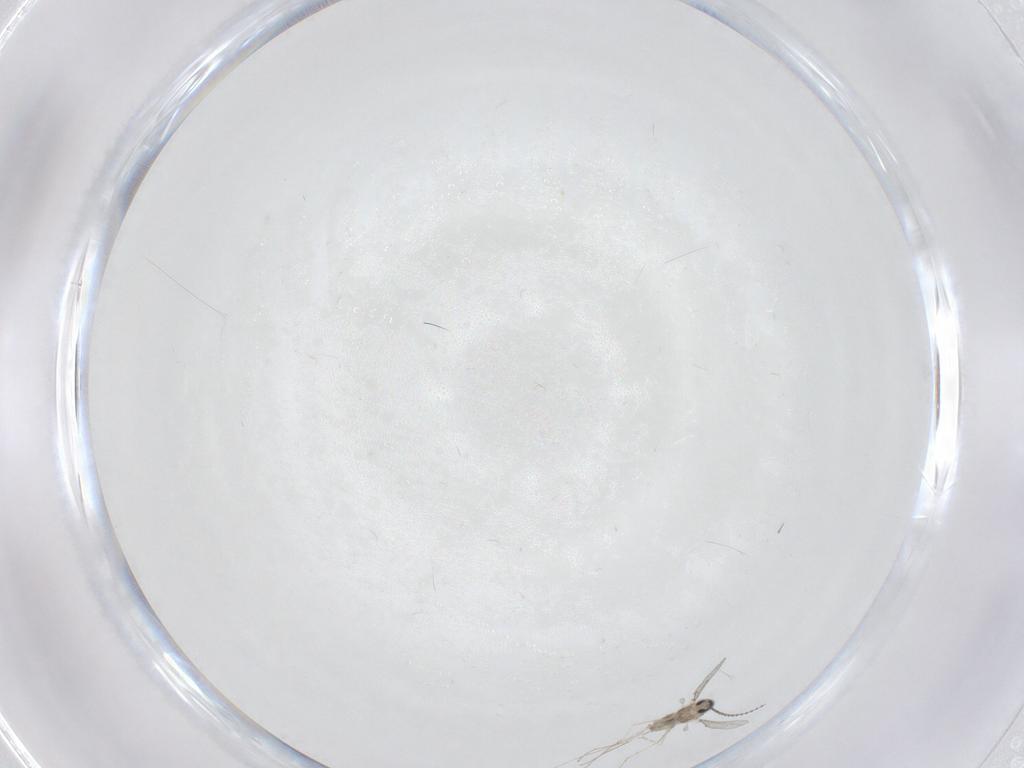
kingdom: Animalia
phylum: Arthropoda
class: Insecta
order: Diptera
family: Cecidomyiidae
